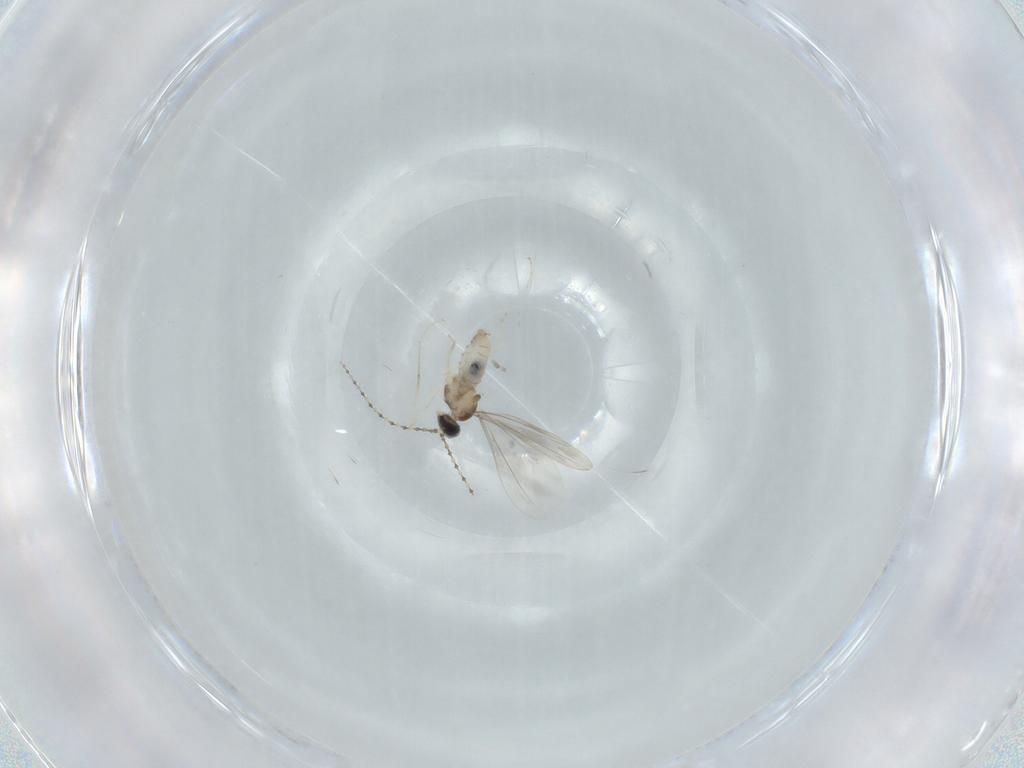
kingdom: Animalia
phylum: Arthropoda
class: Insecta
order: Diptera
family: Cecidomyiidae
